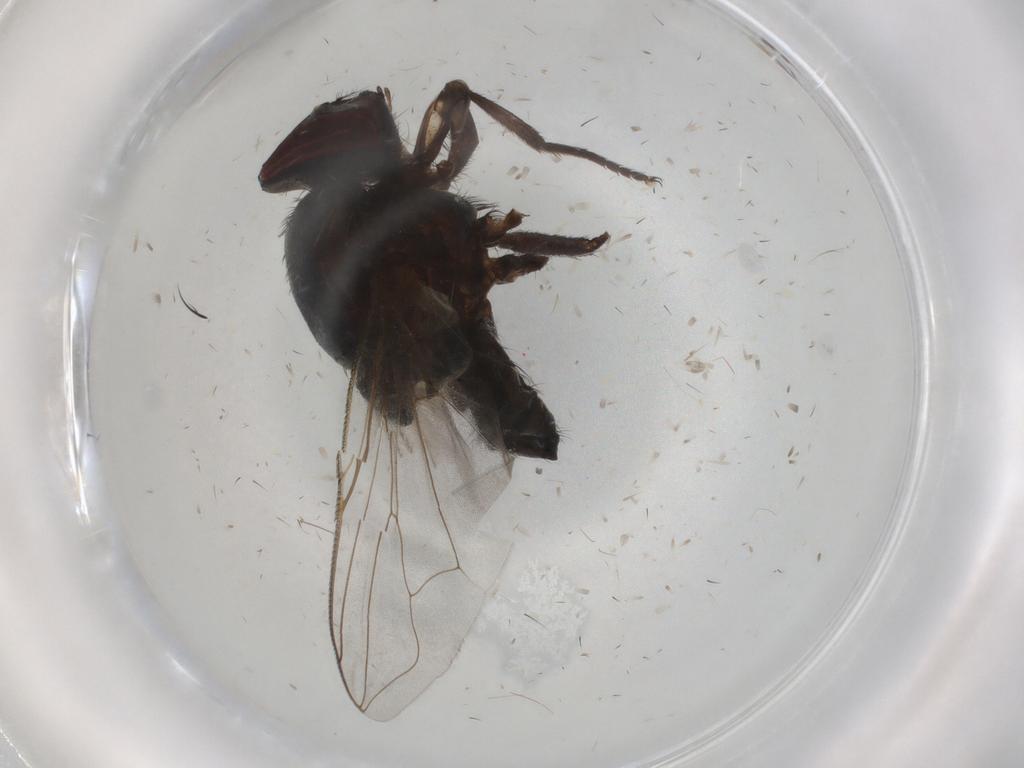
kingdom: Animalia
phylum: Arthropoda
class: Insecta
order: Diptera
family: Muscidae
